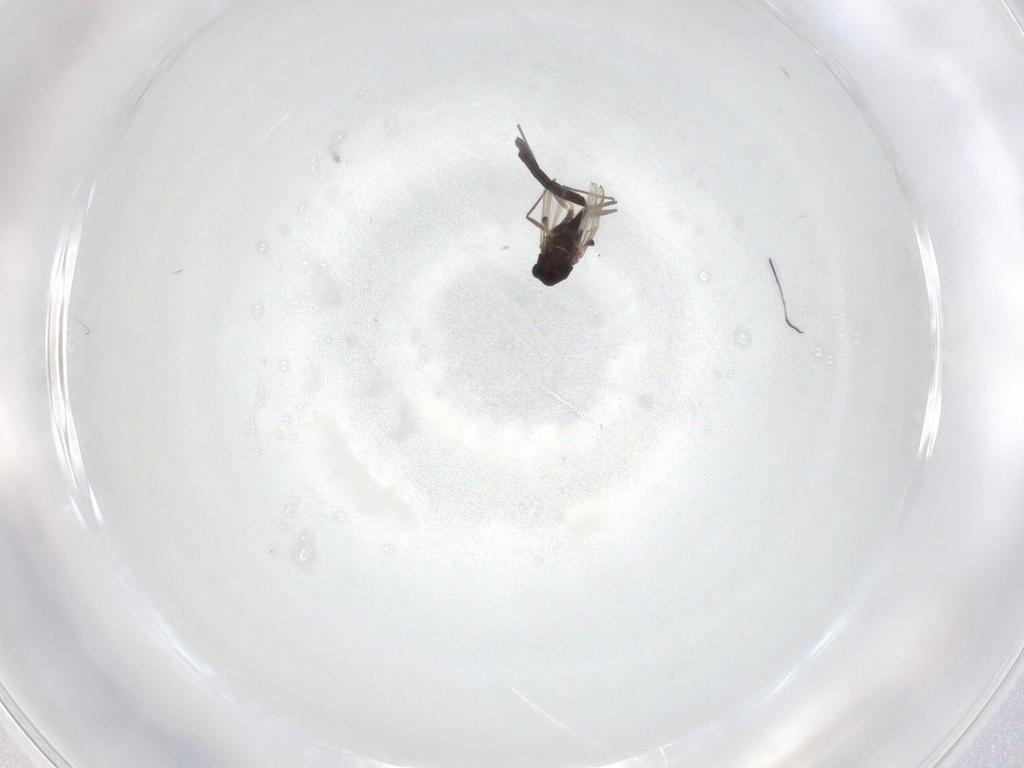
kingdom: Animalia
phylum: Arthropoda
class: Insecta
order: Diptera
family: Chironomidae
